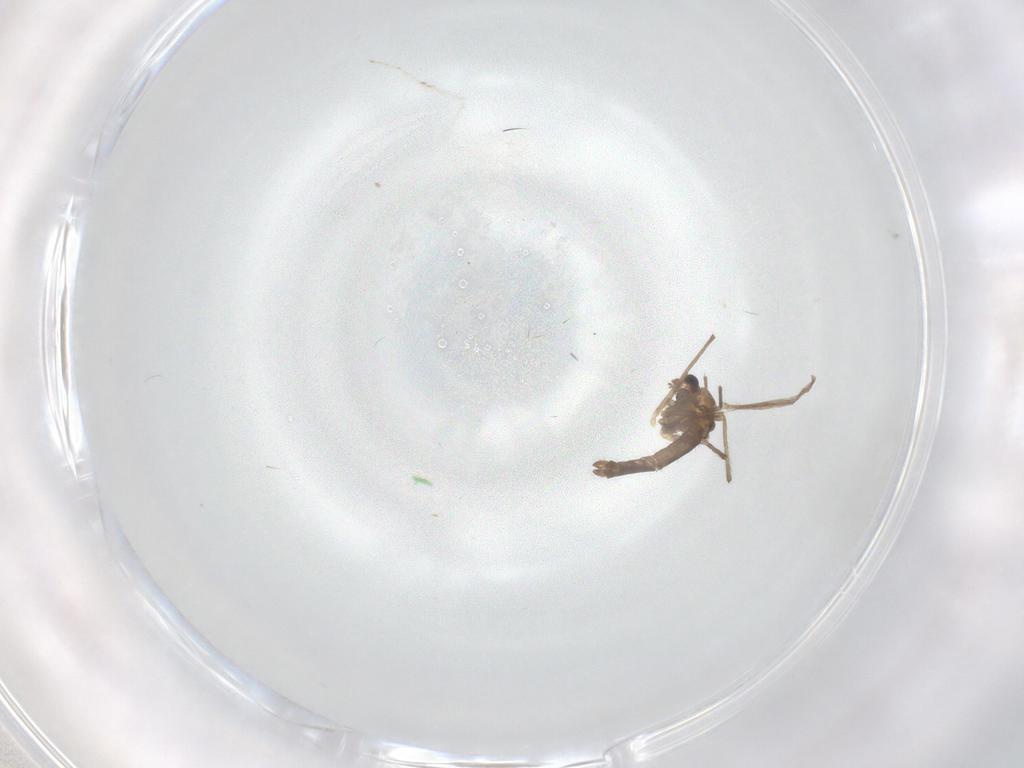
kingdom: Animalia
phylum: Arthropoda
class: Insecta
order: Diptera
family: Chironomidae
